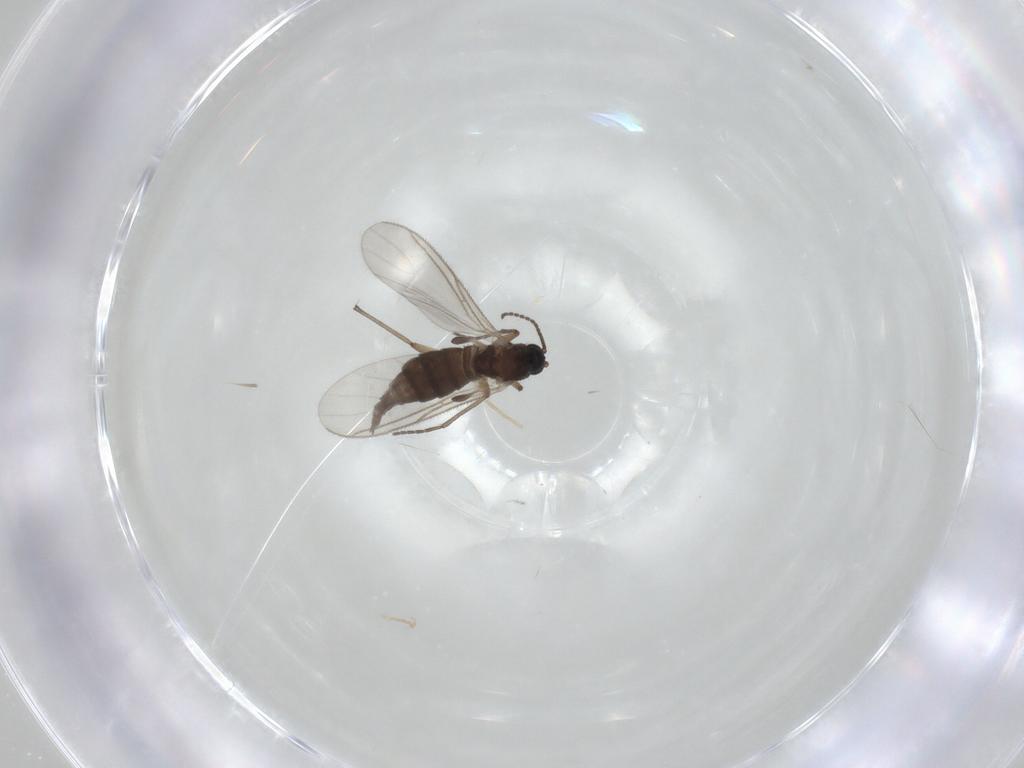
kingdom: Animalia
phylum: Arthropoda
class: Insecta
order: Diptera
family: Sciaridae
